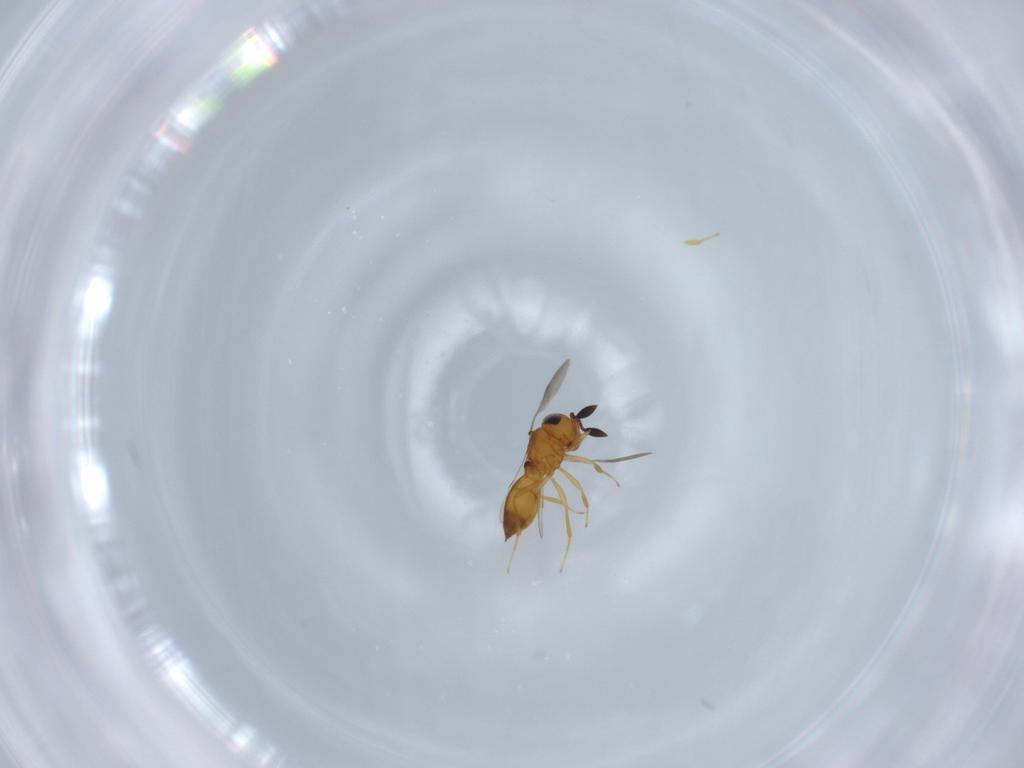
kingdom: Animalia
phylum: Arthropoda
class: Insecta
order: Hymenoptera
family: Scelionidae
